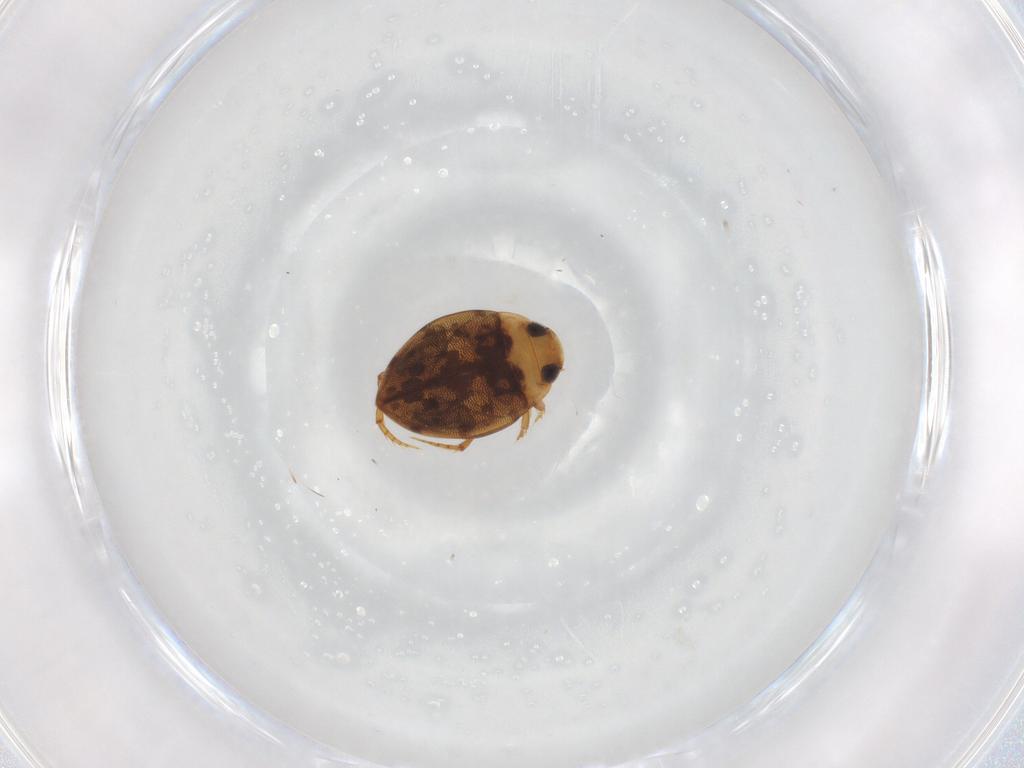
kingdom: Animalia
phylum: Arthropoda
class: Insecta
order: Coleoptera
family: Dytiscidae
